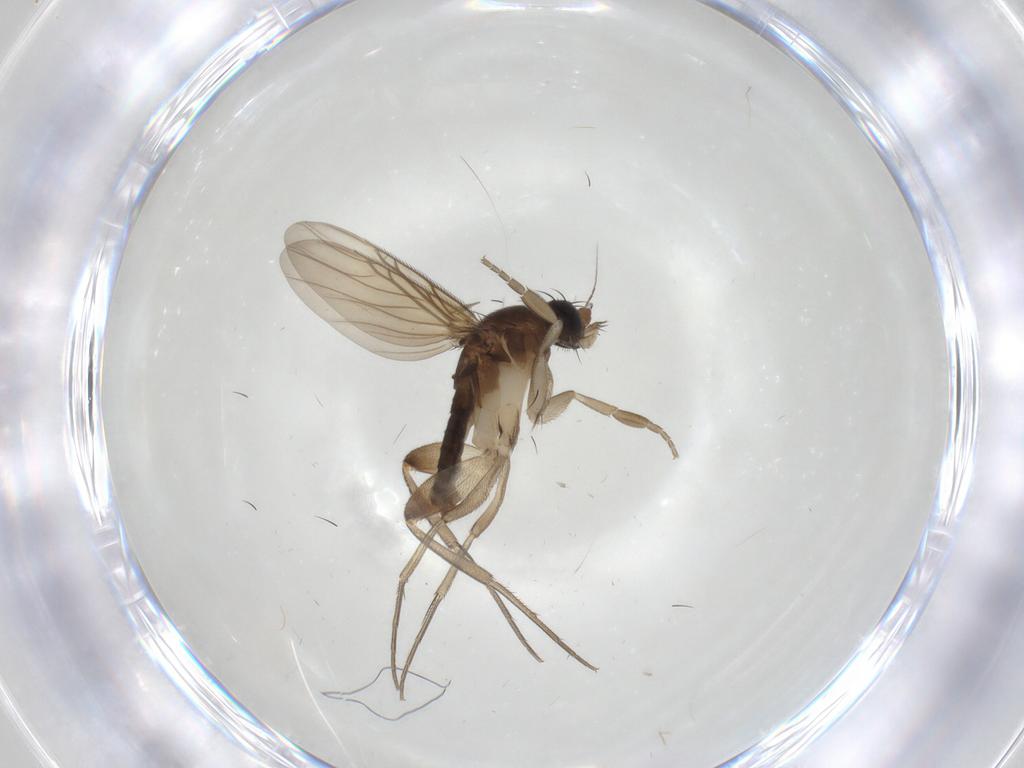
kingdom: Animalia
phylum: Arthropoda
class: Insecta
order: Diptera
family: Phoridae
